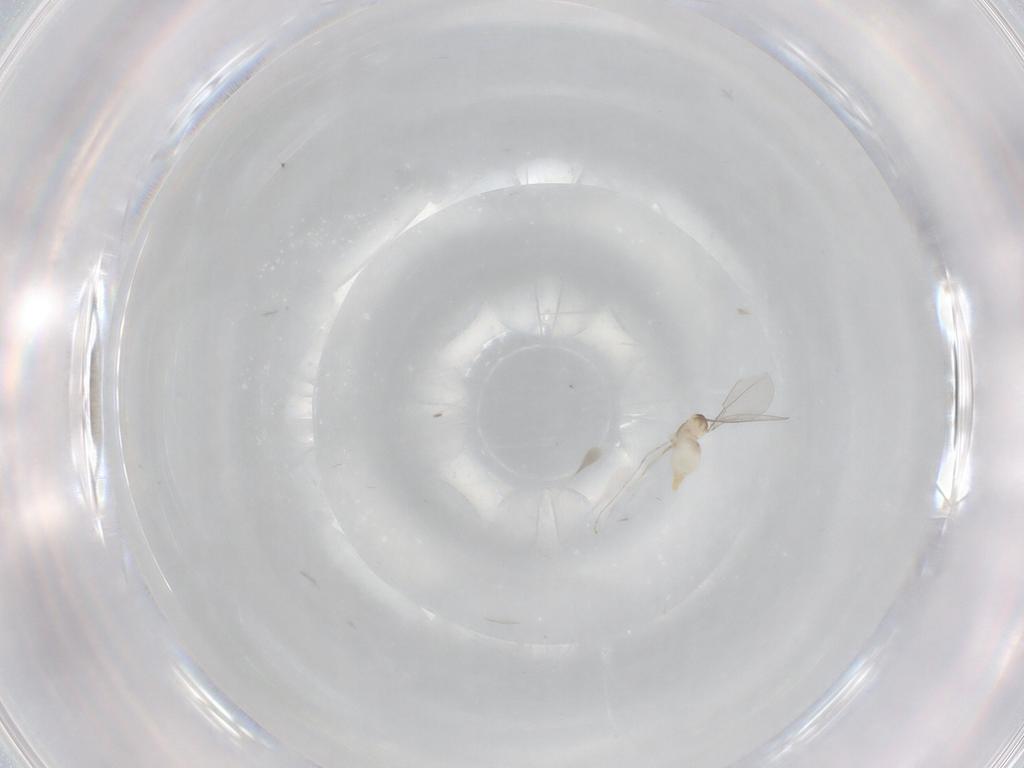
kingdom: Animalia
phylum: Arthropoda
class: Insecta
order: Diptera
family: Cecidomyiidae
